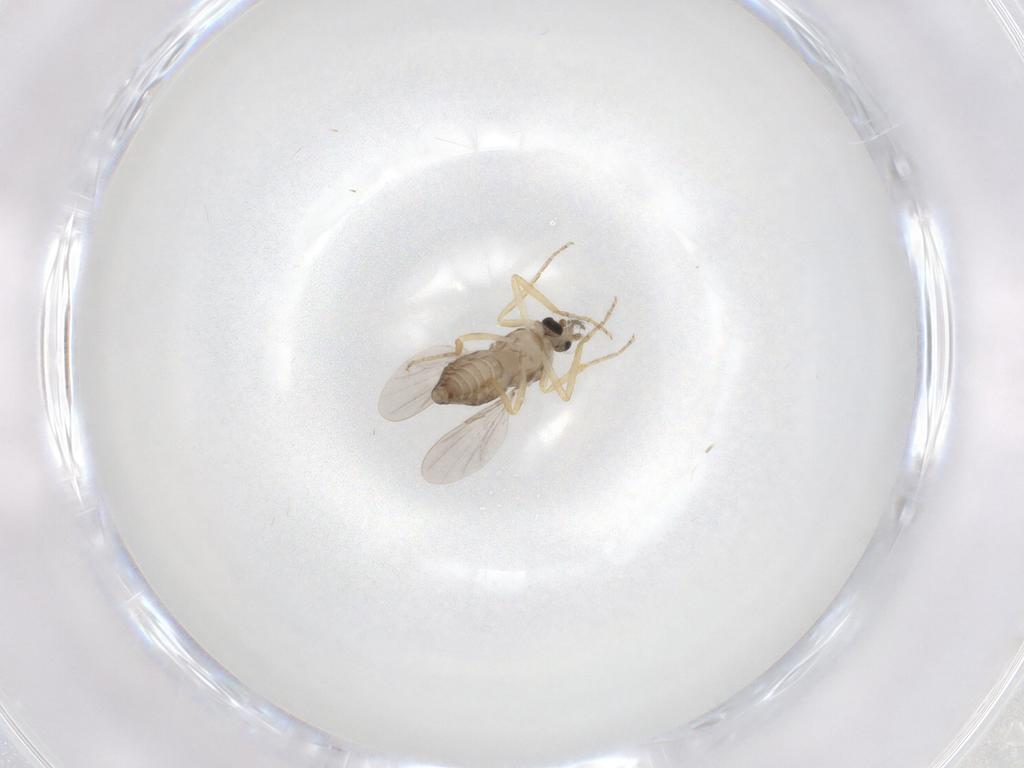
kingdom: Animalia
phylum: Arthropoda
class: Insecta
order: Diptera
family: Ceratopogonidae
